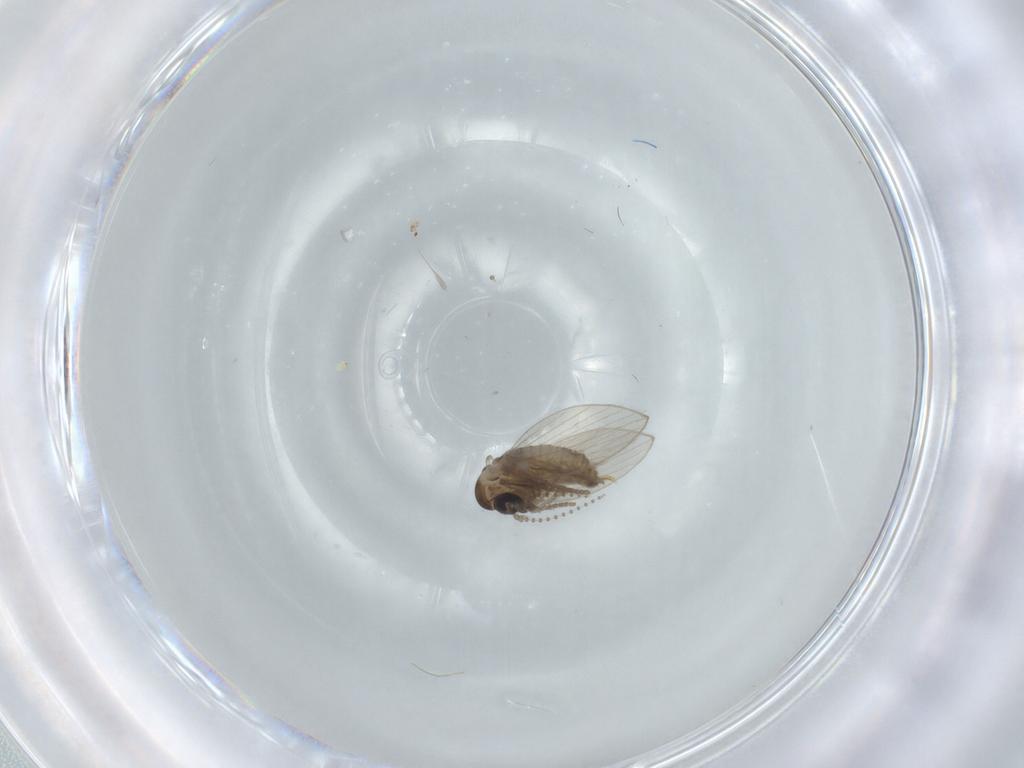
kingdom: Animalia
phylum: Arthropoda
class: Insecta
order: Diptera
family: Psychodidae
